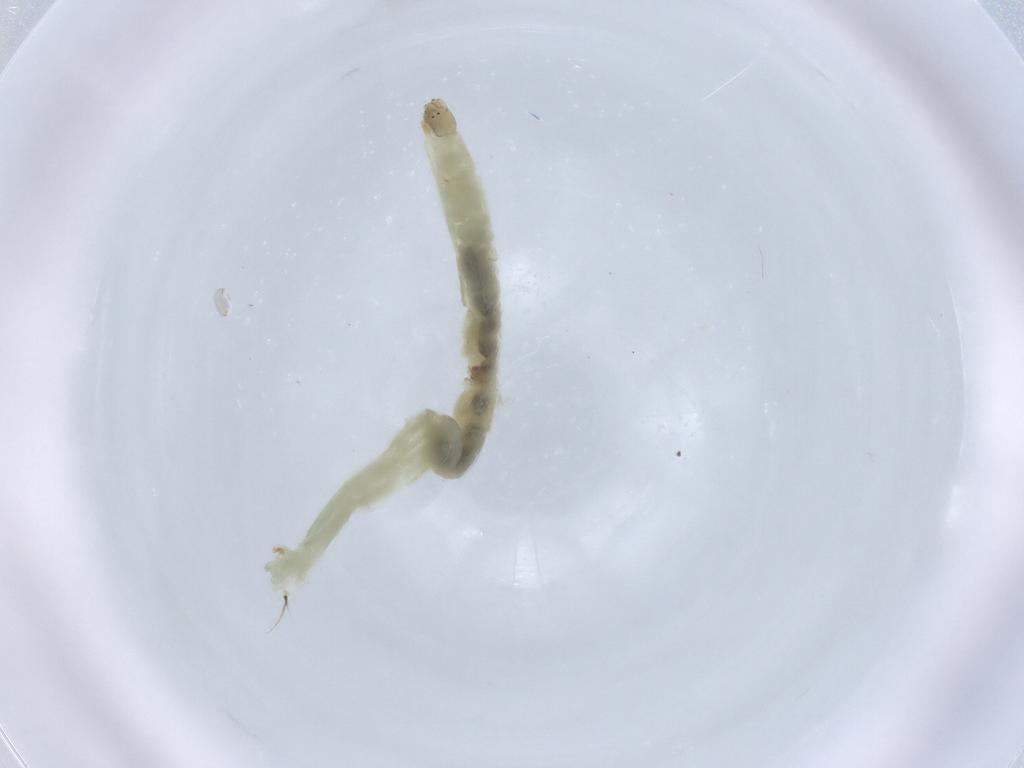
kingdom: Animalia
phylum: Arthropoda
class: Insecta
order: Diptera
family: Chironomidae
